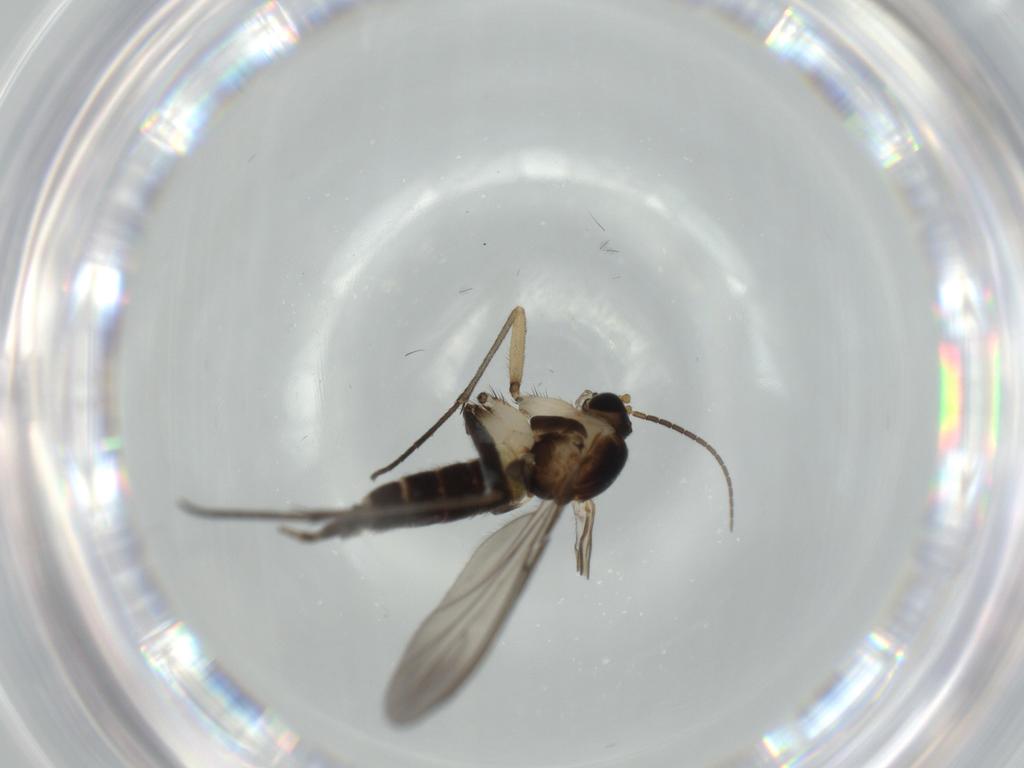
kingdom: Animalia
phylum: Arthropoda
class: Insecta
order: Diptera
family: Sciaridae
